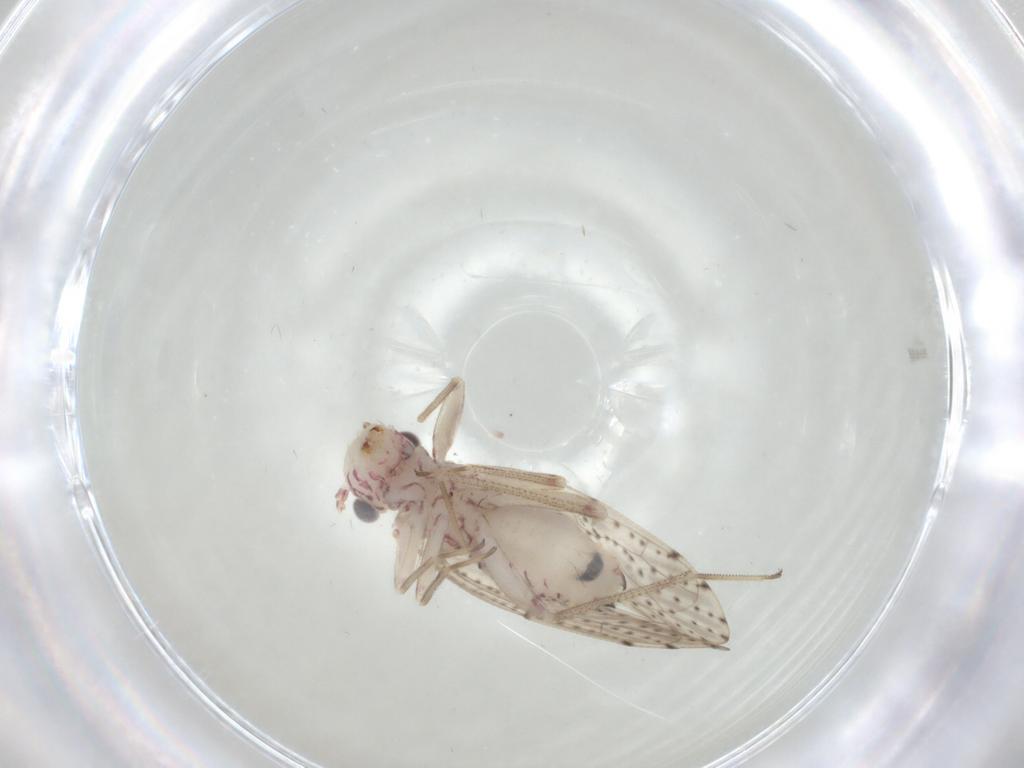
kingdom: Animalia
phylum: Arthropoda
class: Insecta
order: Psocodea
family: Philotarsidae
